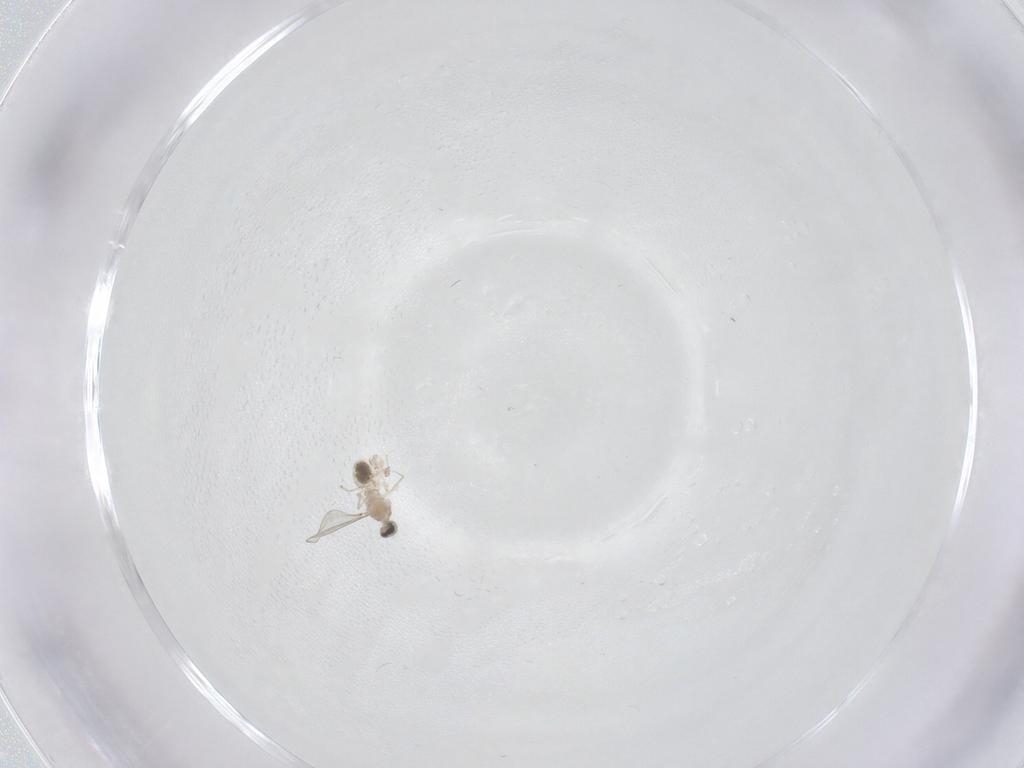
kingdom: Animalia
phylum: Arthropoda
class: Insecta
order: Diptera
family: Cecidomyiidae
